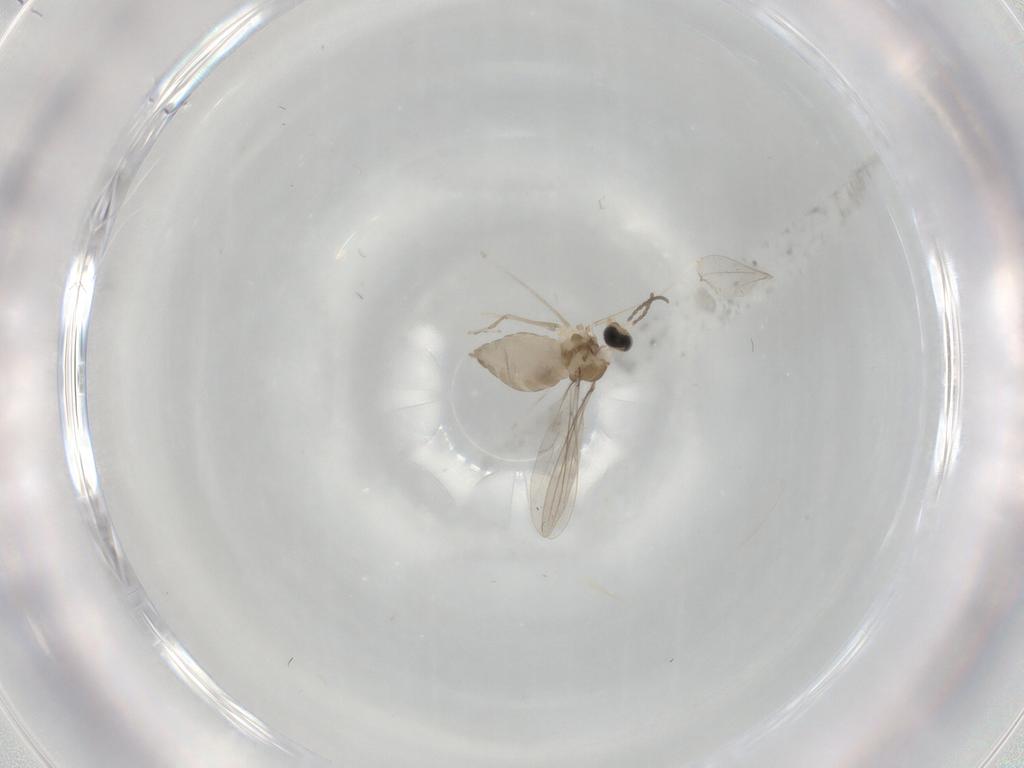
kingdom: Animalia
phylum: Arthropoda
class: Insecta
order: Diptera
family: Cecidomyiidae
